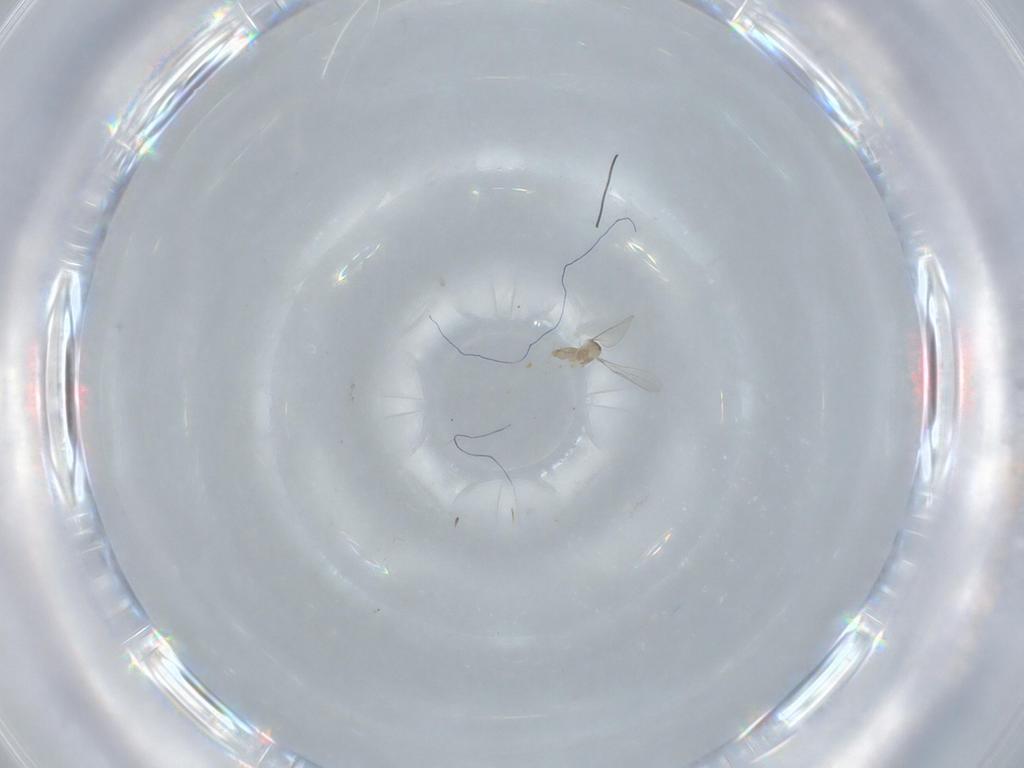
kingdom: Animalia
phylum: Arthropoda
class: Insecta
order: Diptera
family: Cecidomyiidae
